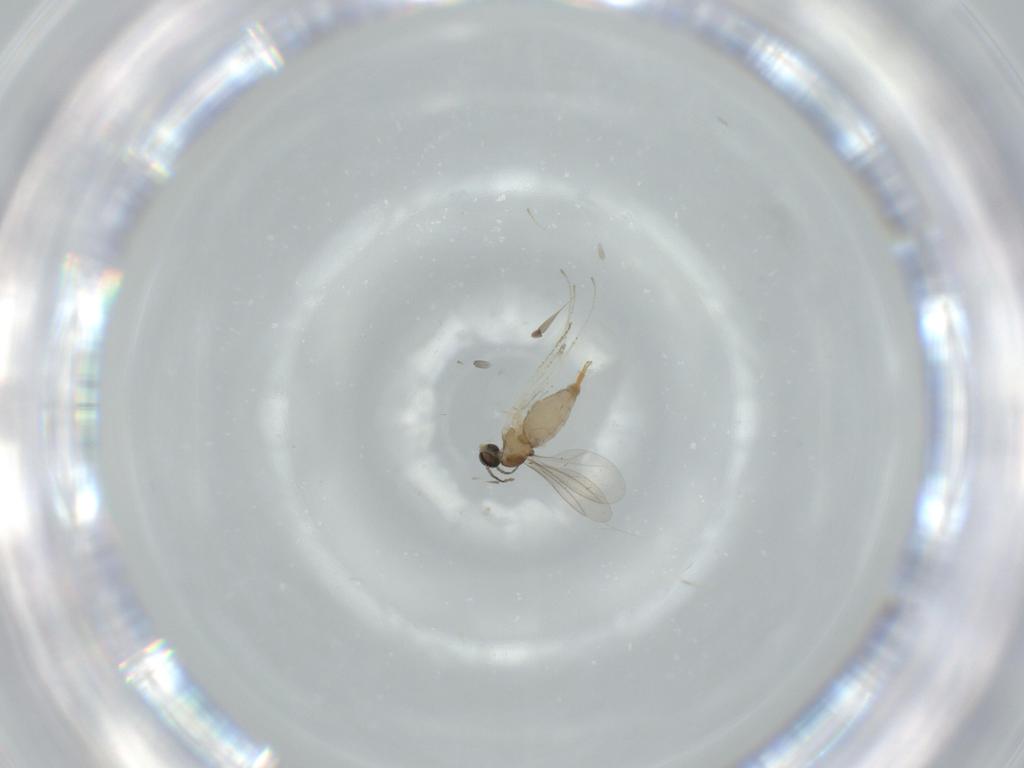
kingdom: Animalia
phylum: Arthropoda
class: Insecta
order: Diptera
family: Cecidomyiidae
